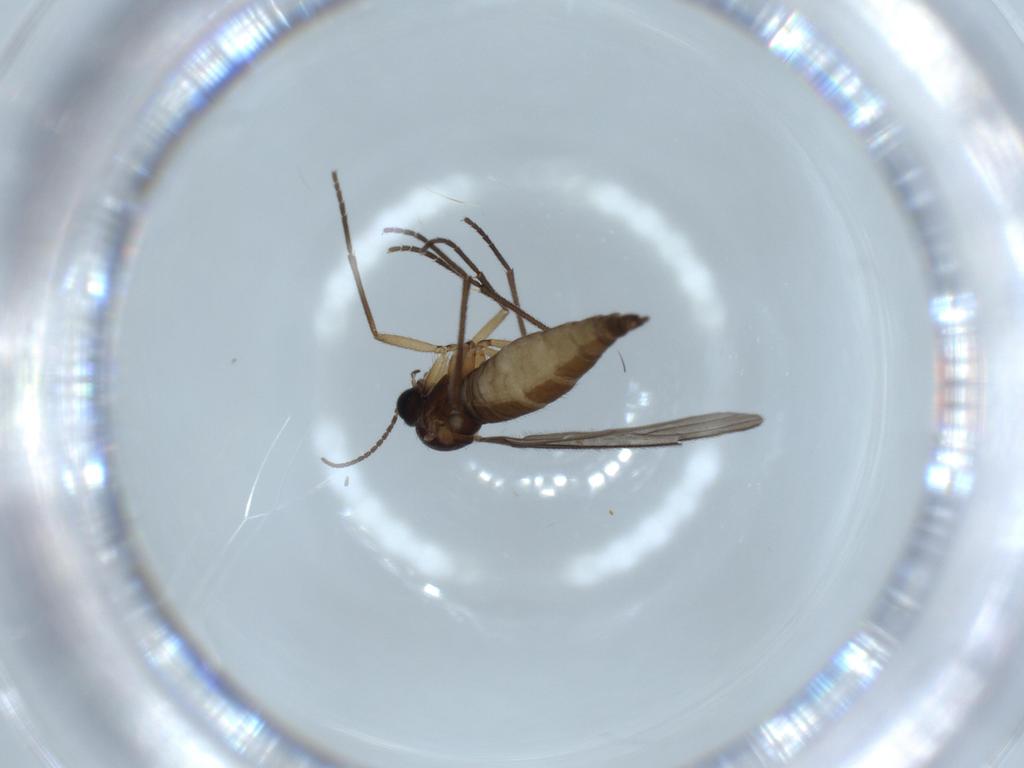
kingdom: Animalia
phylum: Arthropoda
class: Insecta
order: Diptera
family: Sciaridae
